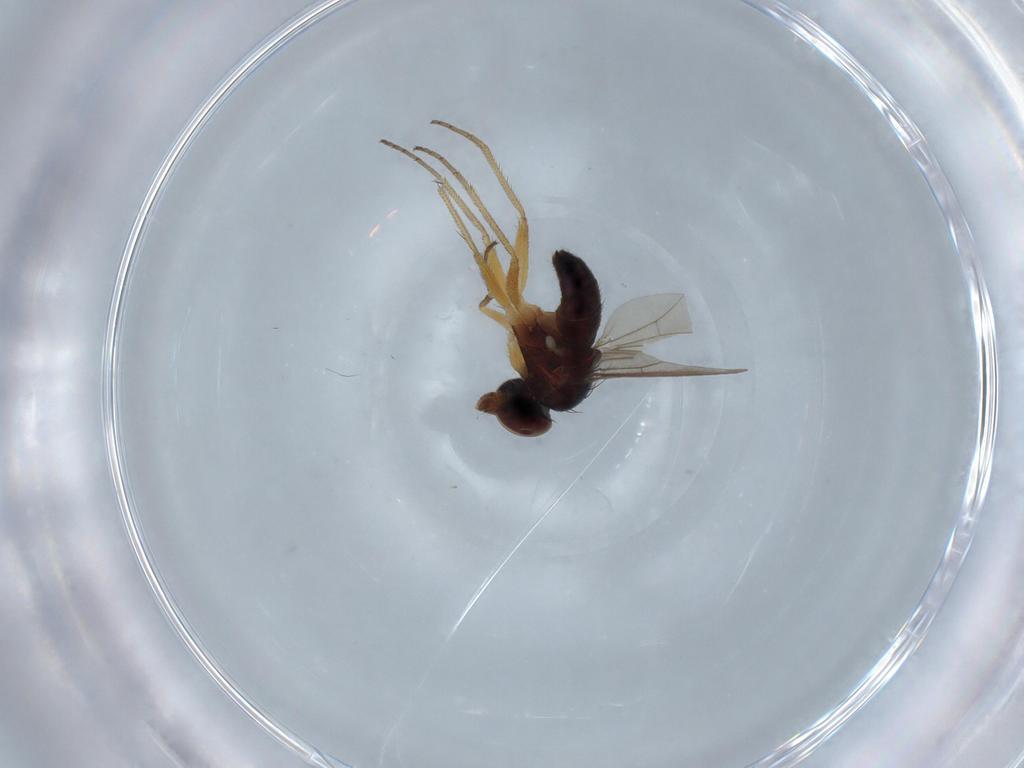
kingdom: Animalia
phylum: Arthropoda
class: Insecta
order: Diptera
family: Dolichopodidae
